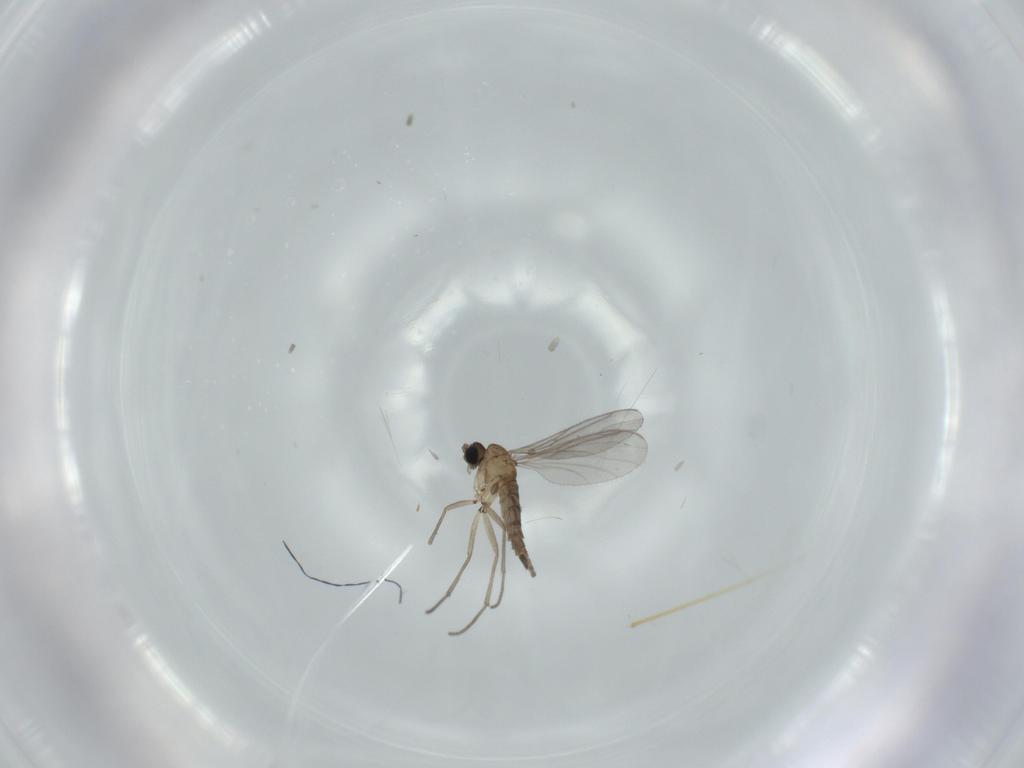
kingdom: Animalia
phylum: Arthropoda
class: Insecta
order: Diptera
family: Sciaridae
